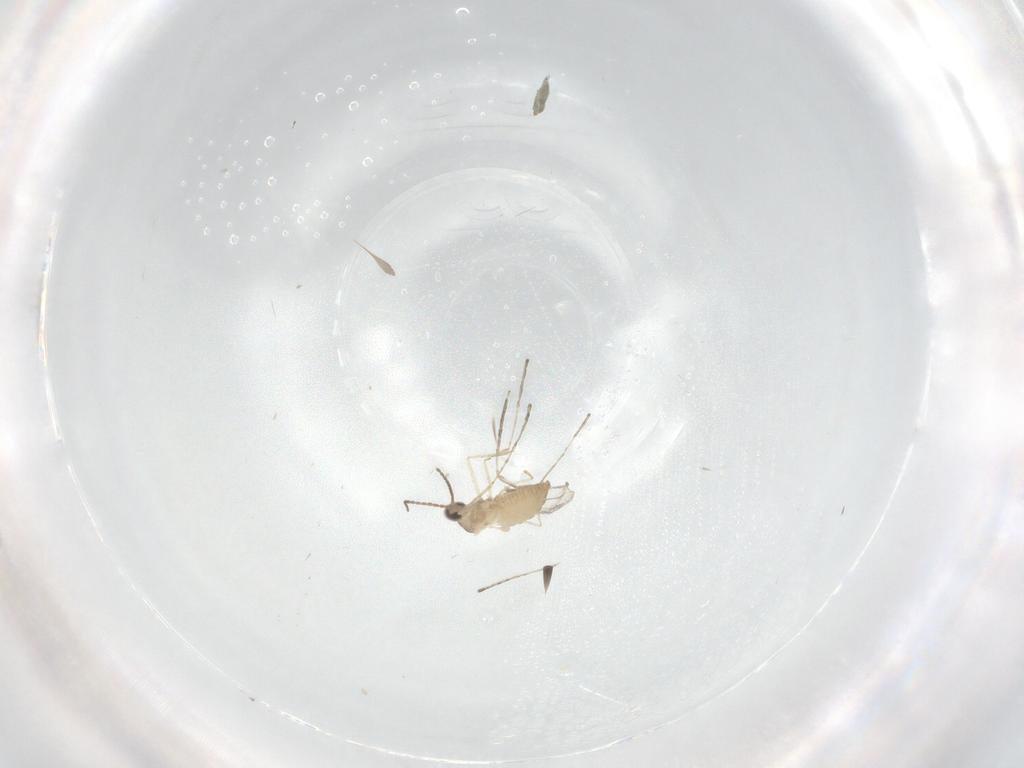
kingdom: Animalia
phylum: Arthropoda
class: Insecta
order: Diptera
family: Cecidomyiidae
